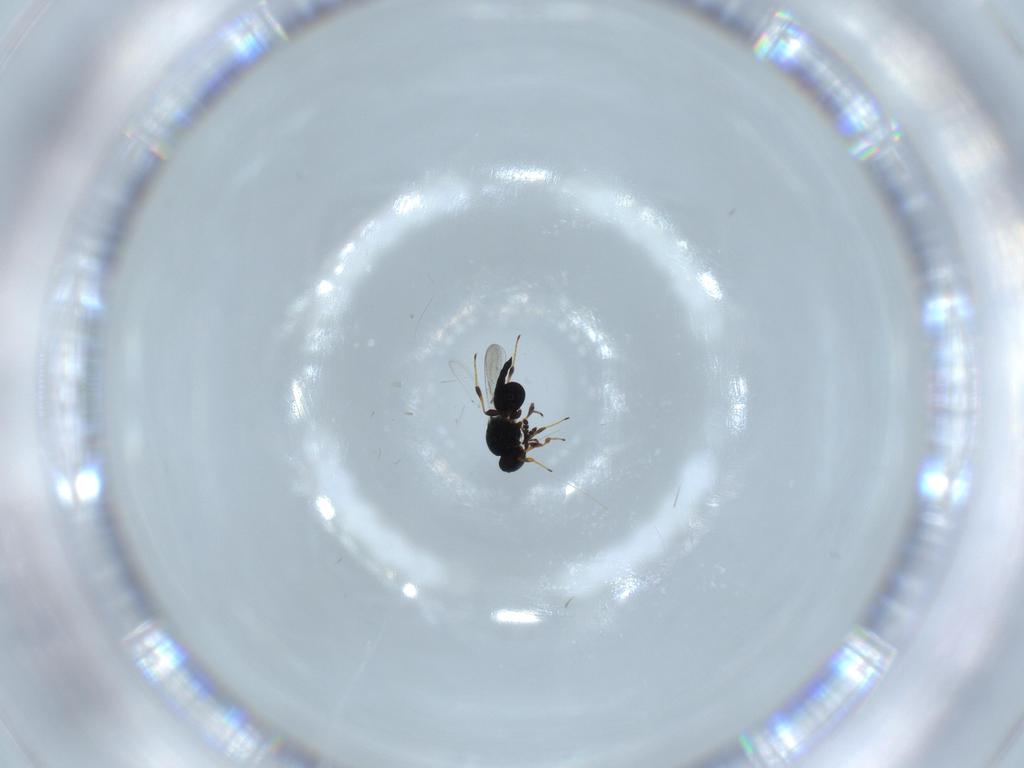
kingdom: Animalia
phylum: Arthropoda
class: Insecta
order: Hymenoptera
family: Platygastridae
